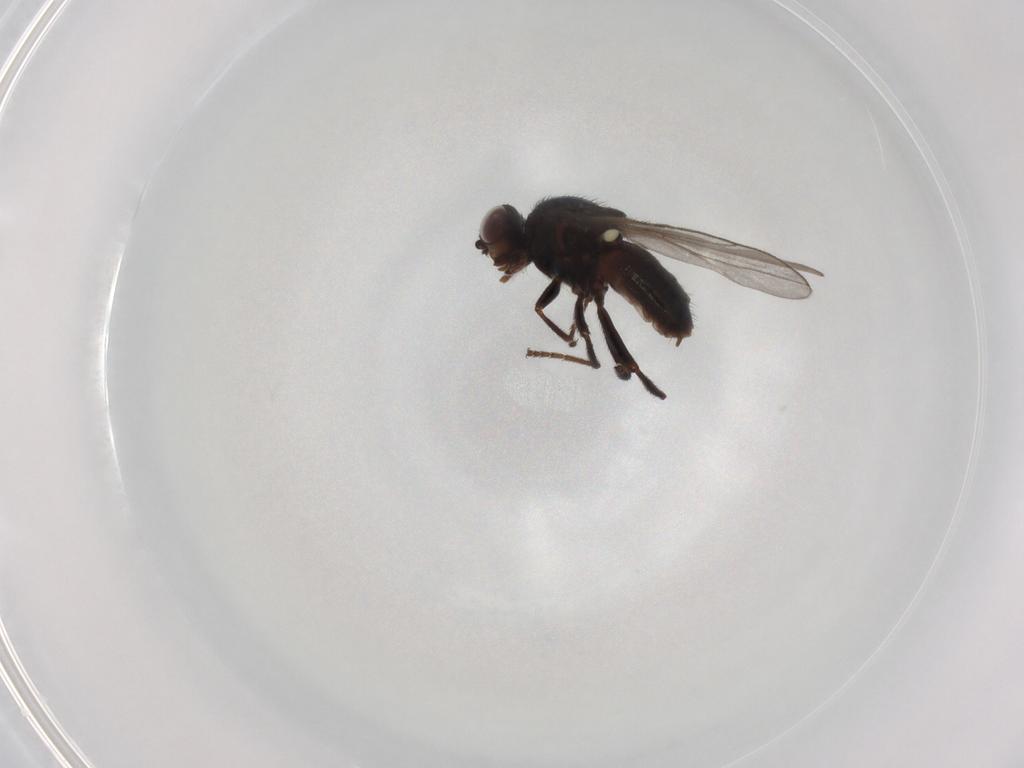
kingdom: Animalia
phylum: Arthropoda
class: Insecta
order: Diptera
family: Chloropidae
